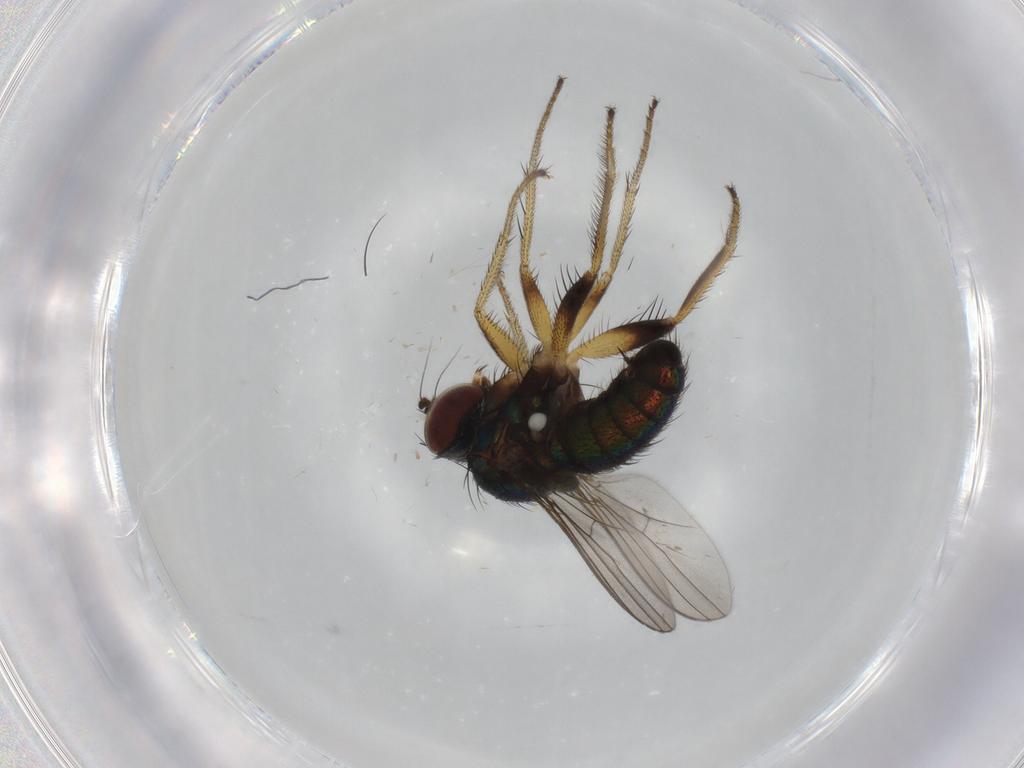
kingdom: Animalia
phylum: Arthropoda
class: Insecta
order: Diptera
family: Dolichopodidae
